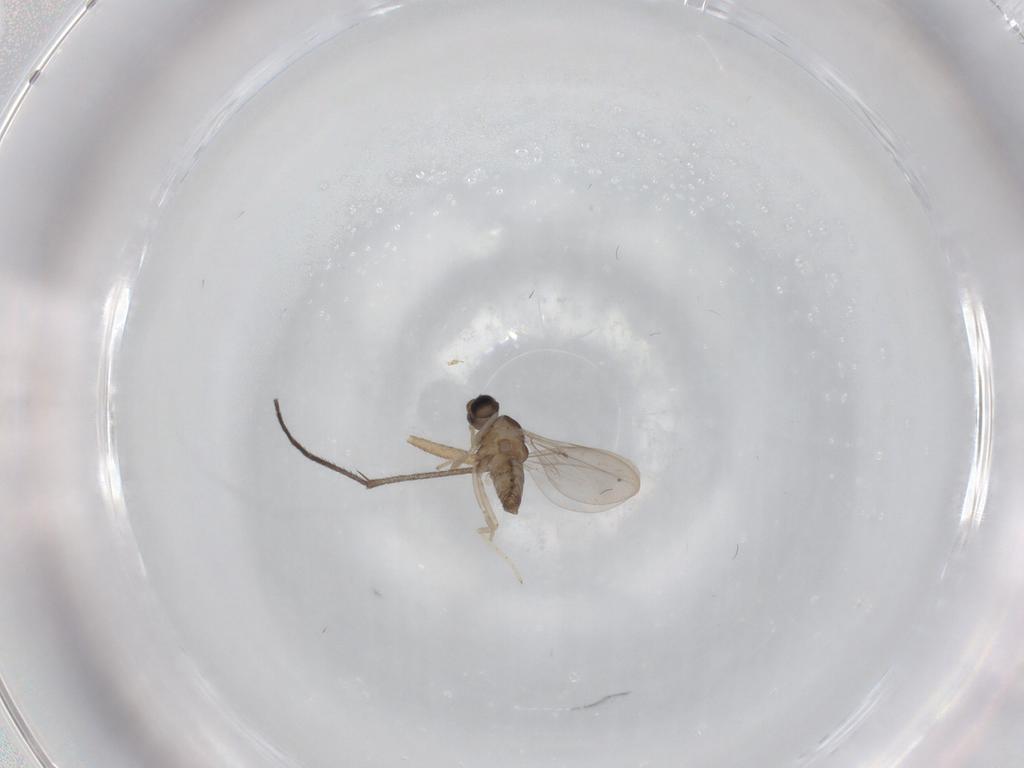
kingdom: Animalia
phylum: Arthropoda
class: Insecta
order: Diptera
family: Cecidomyiidae
